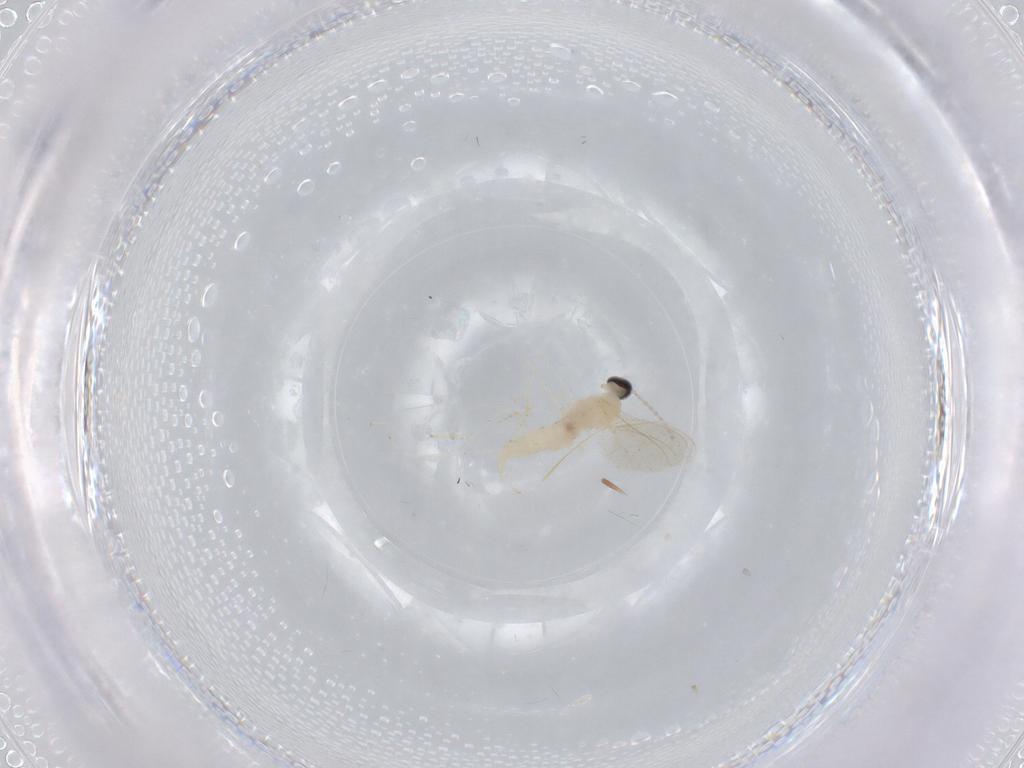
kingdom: Animalia
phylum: Arthropoda
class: Insecta
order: Diptera
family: Cecidomyiidae
